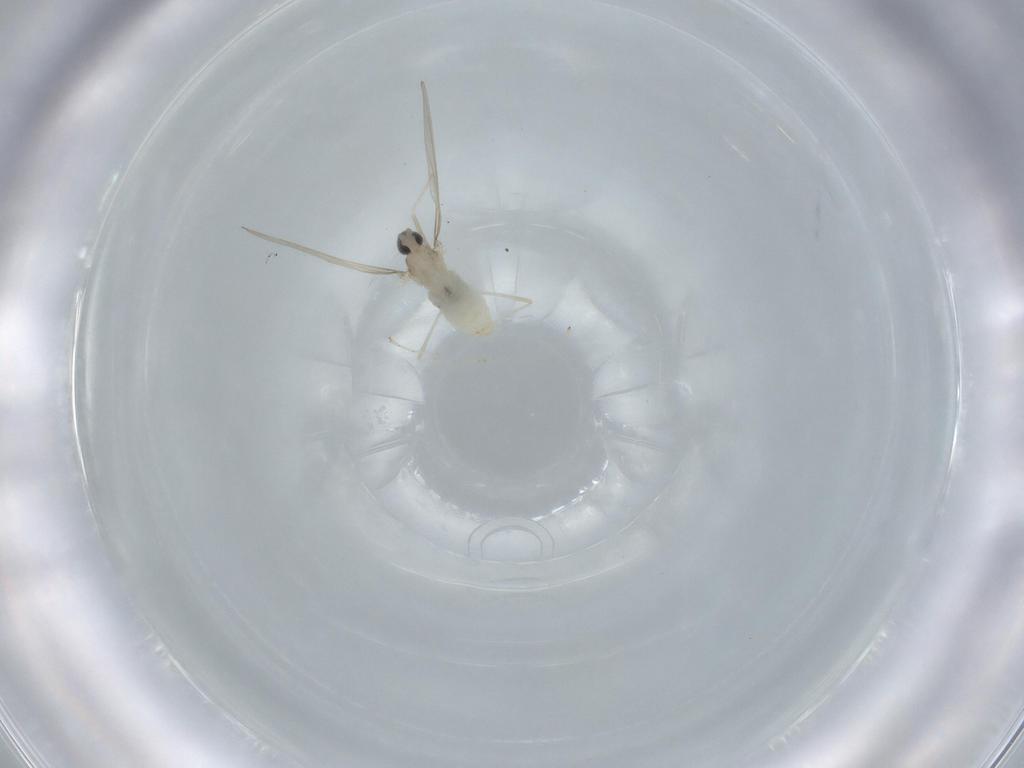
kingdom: Animalia
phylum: Arthropoda
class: Insecta
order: Diptera
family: Cecidomyiidae
